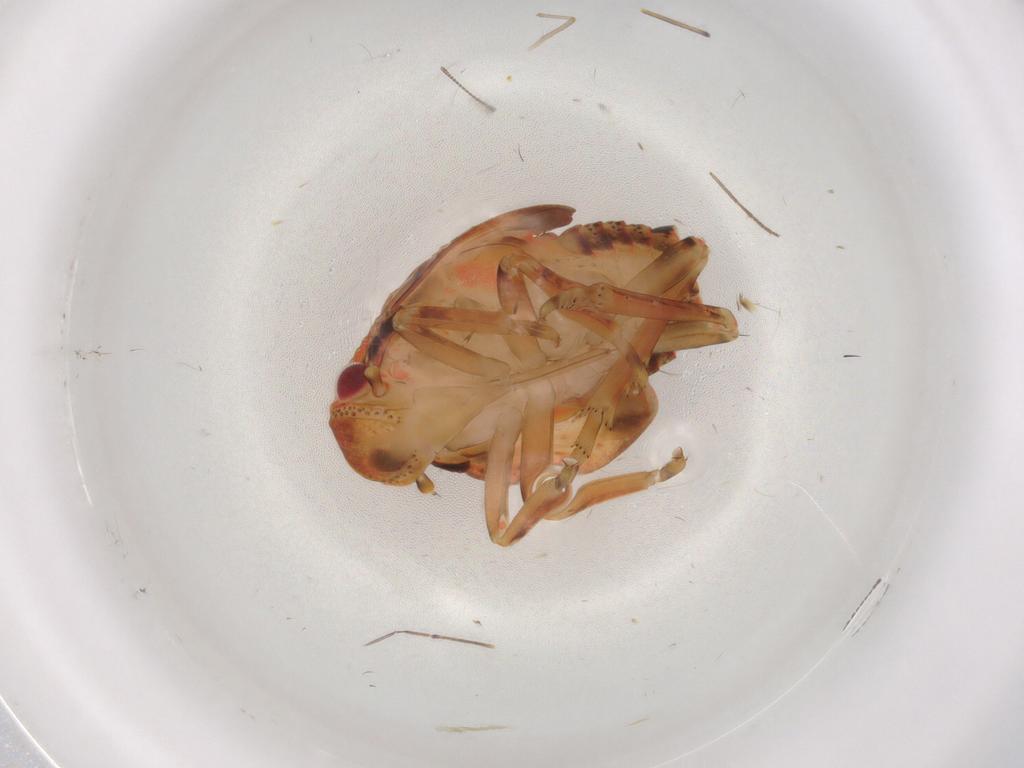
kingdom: Animalia
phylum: Arthropoda
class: Insecta
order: Hemiptera
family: Flatidae
